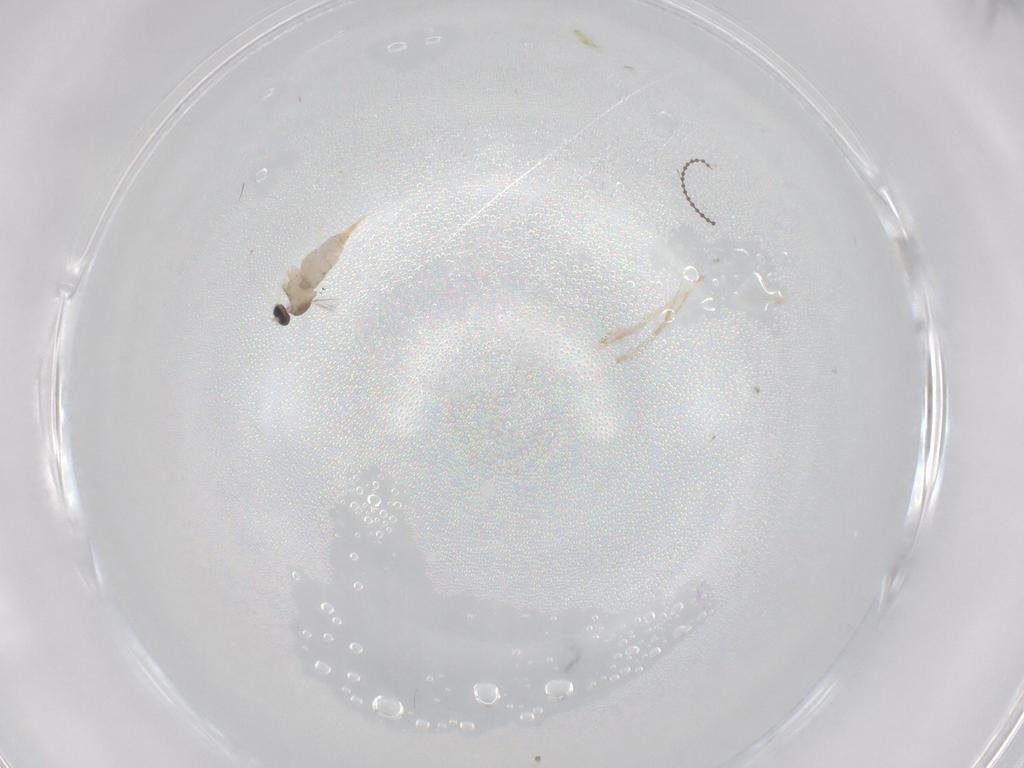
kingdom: Animalia
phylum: Arthropoda
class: Insecta
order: Diptera
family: Cecidomyiidae
